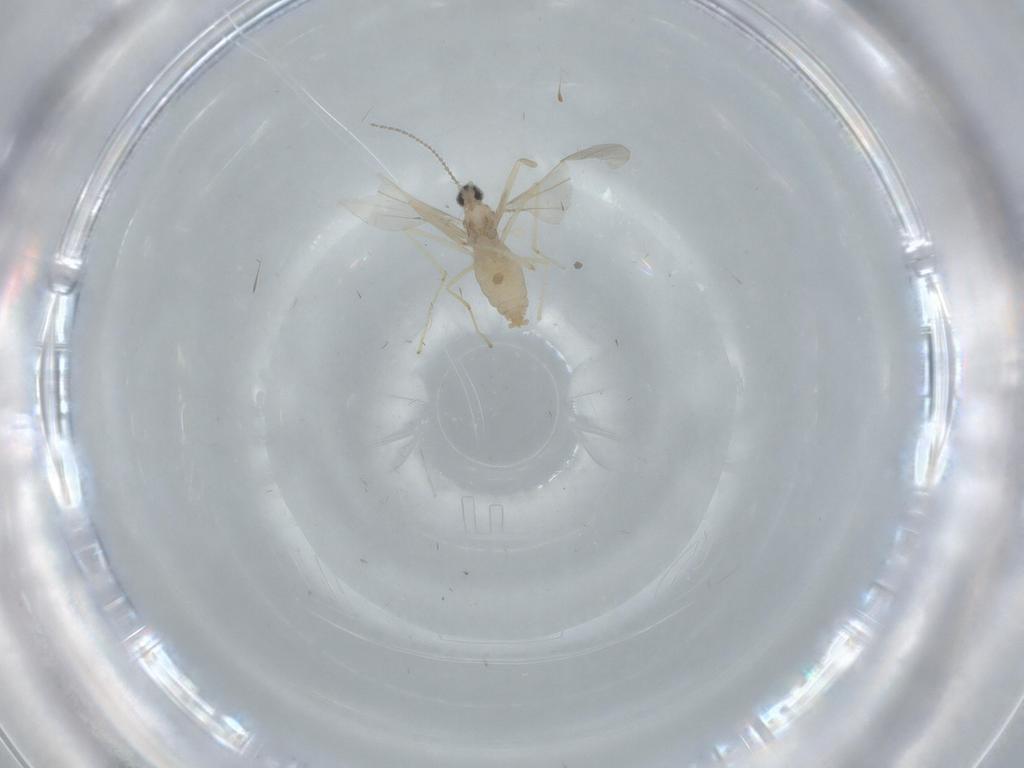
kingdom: Animalia
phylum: Arthropoda
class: Insecta
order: Diptera
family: Cecidomyiidae
